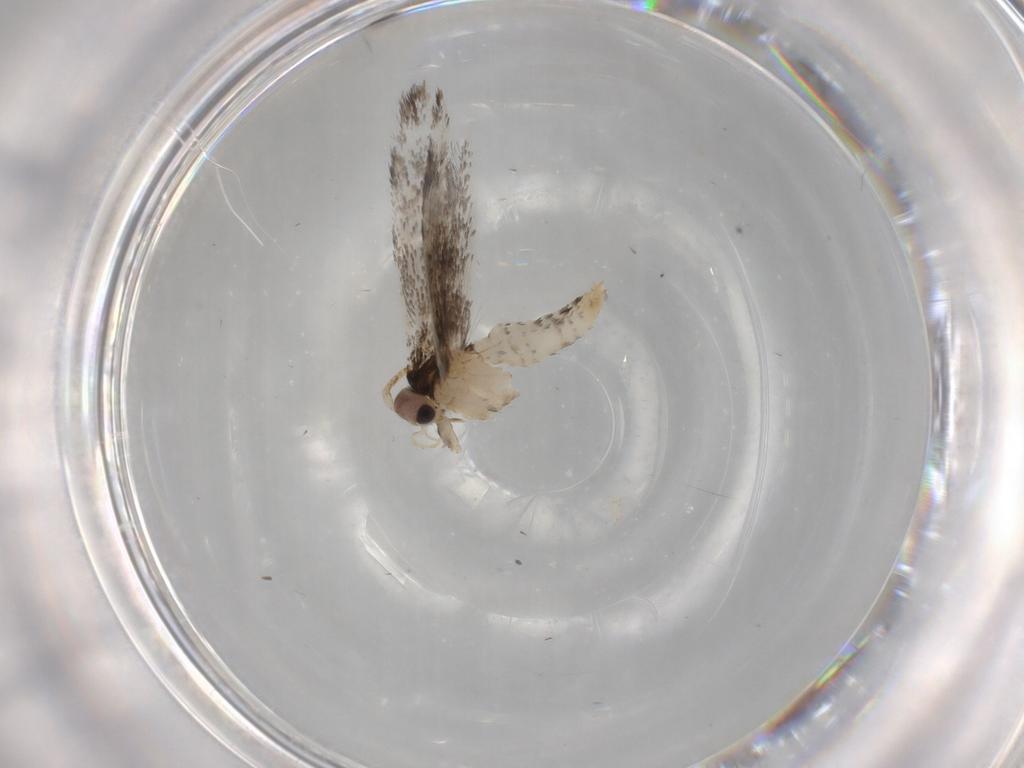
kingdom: Animalia
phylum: Arthropoda
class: Insecta
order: Lepidoptera
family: Tineidae
